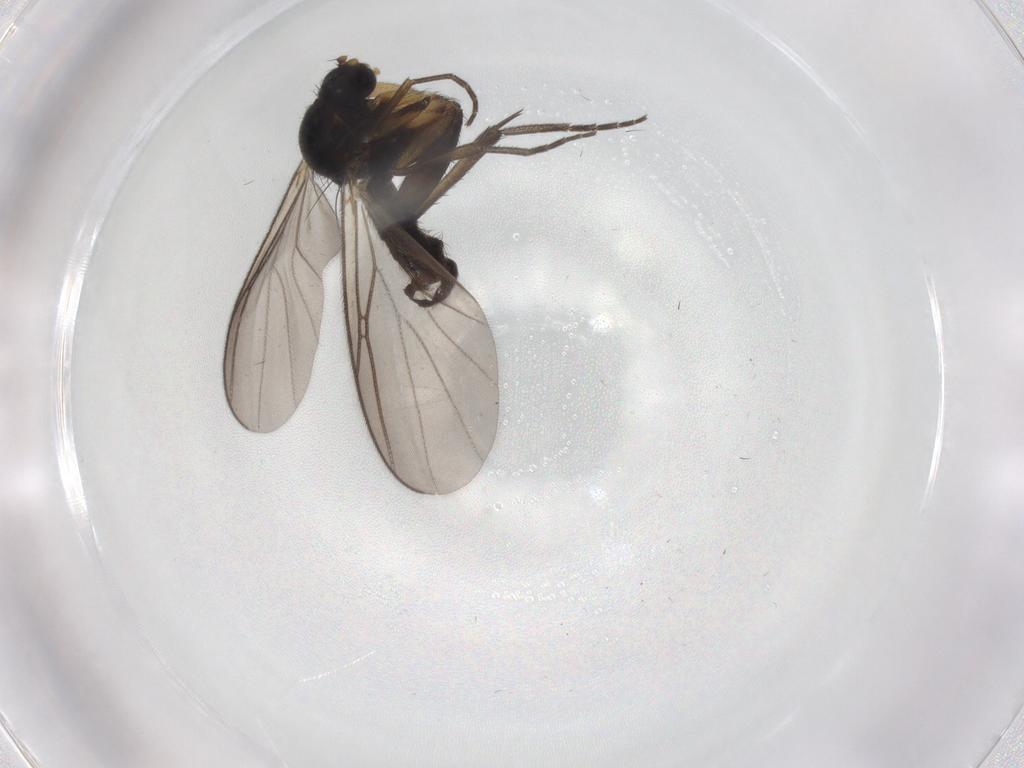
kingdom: Animalia
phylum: Arthropoda
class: Insecta
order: Diptera
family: Mycetophilidae
